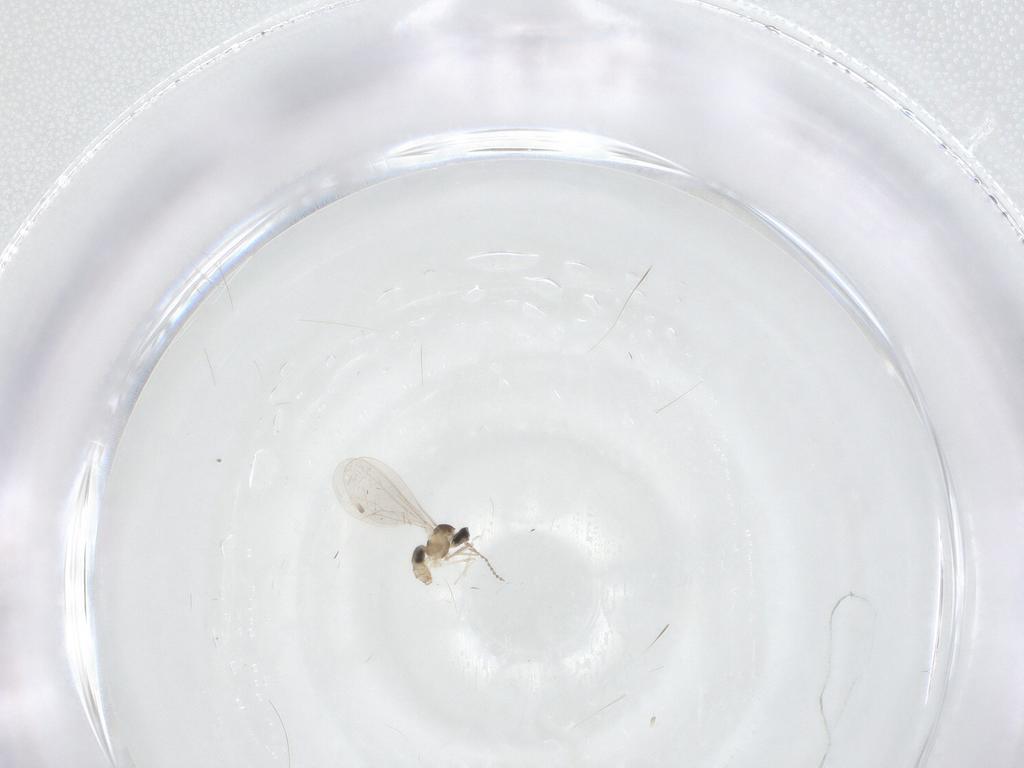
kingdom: Animalia
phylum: Arthropoda
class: Insecta
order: Diptera
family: Cecidomyiidae
